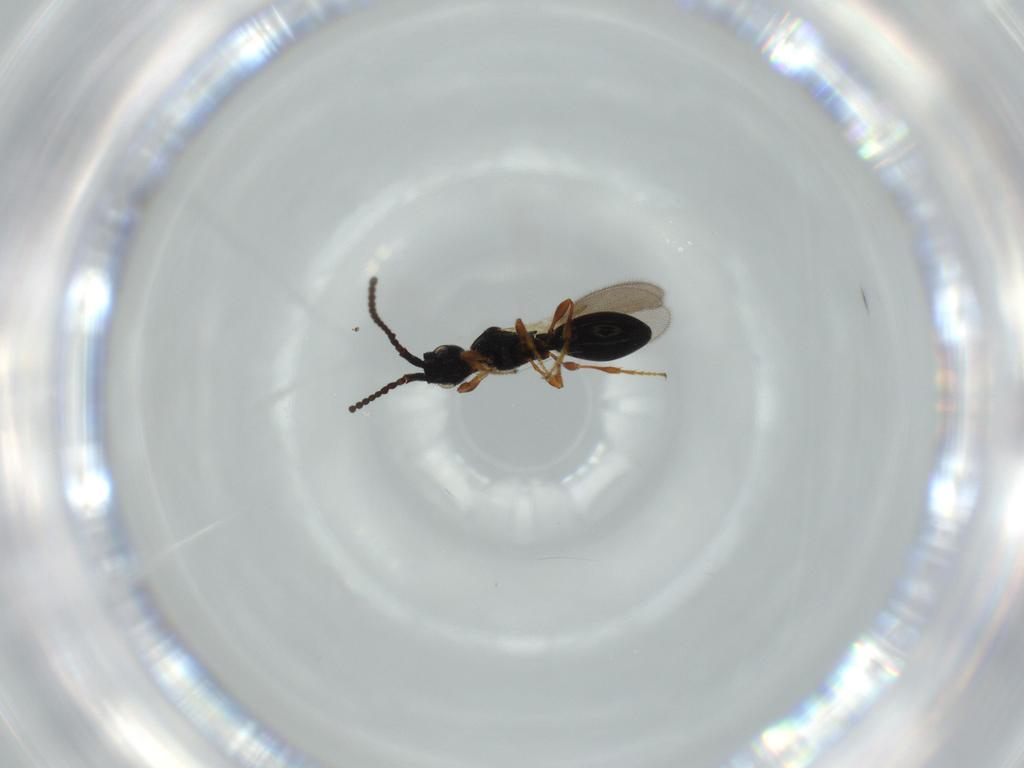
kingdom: Animalia
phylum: Arthropoda
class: Insecta
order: Hymenoptera
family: Diapriidae
